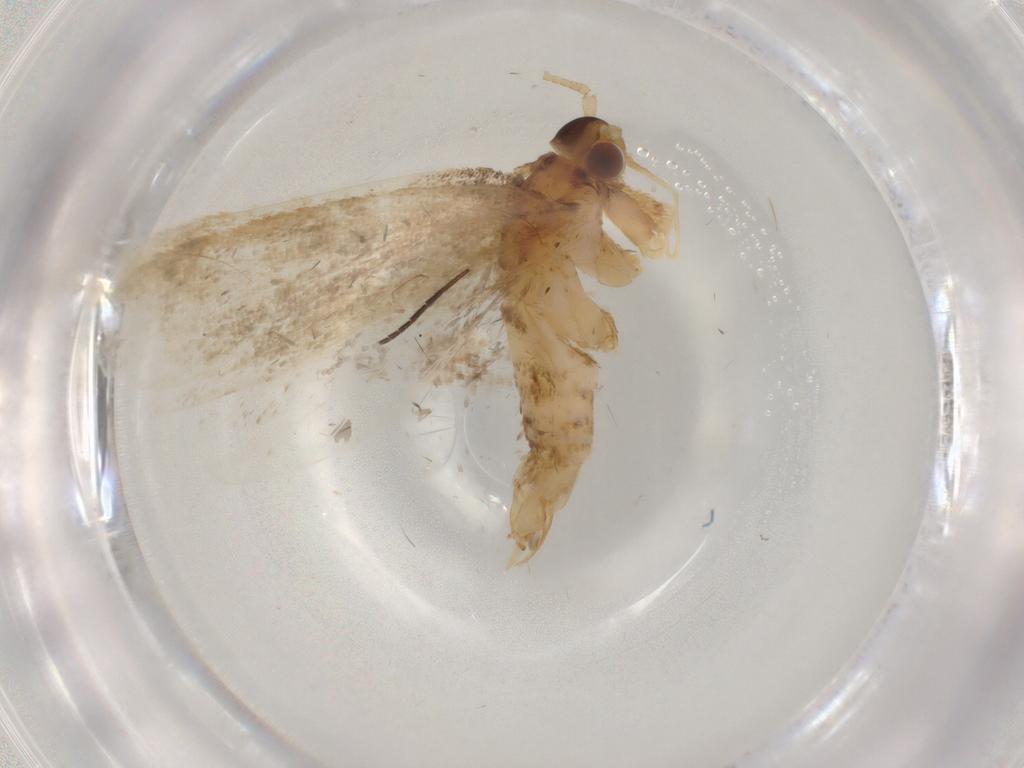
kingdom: Animalia
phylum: Arthropoda
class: Insecta
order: Lepidoptera
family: Lecithoceridae
